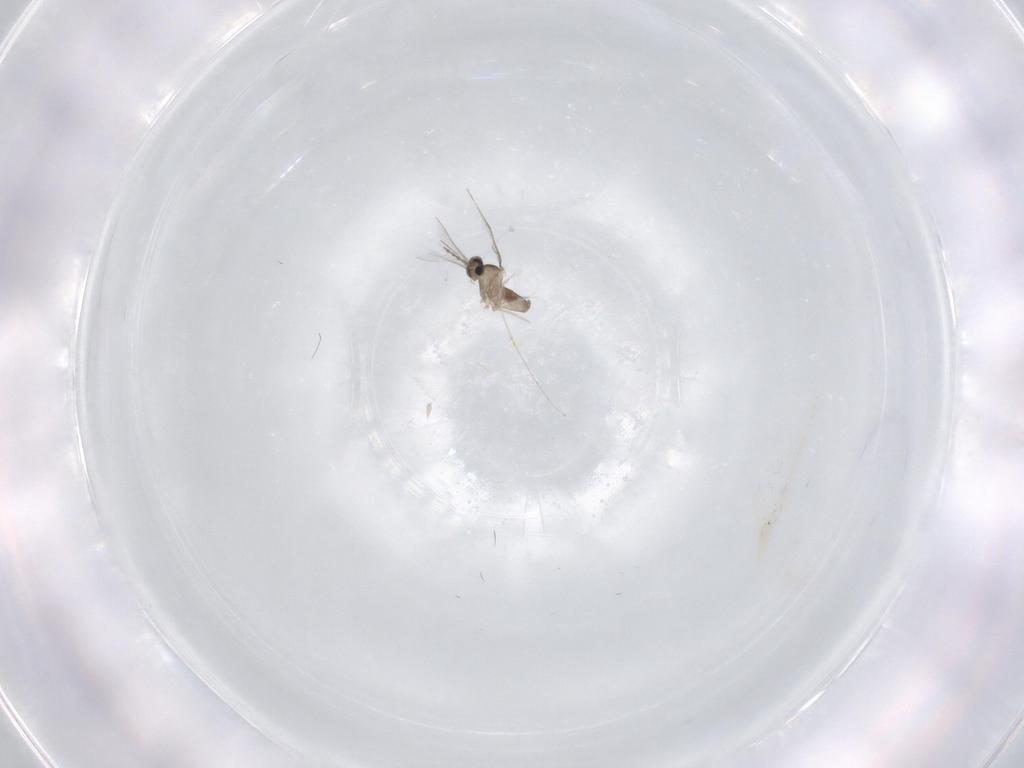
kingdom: Animalia
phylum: Arthropoda
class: Insecta
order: Diptera
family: Cecidomyiidae
